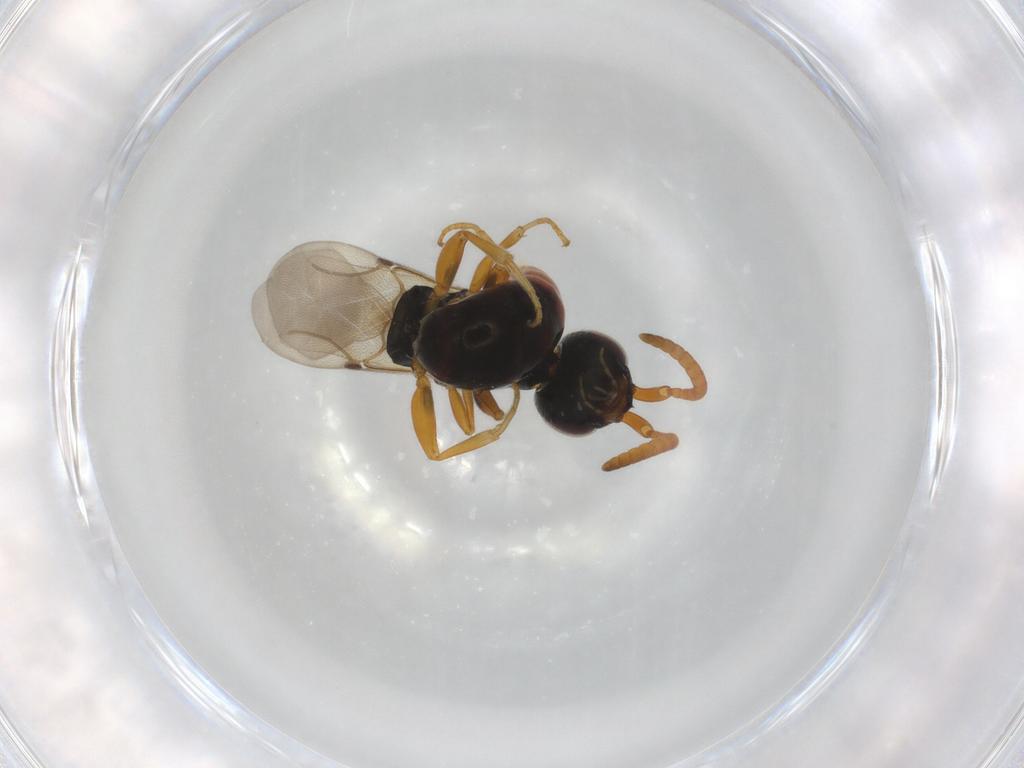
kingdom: Animalia
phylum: Arthropoda
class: Insecta
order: Hymenoptera
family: Bethylidae
